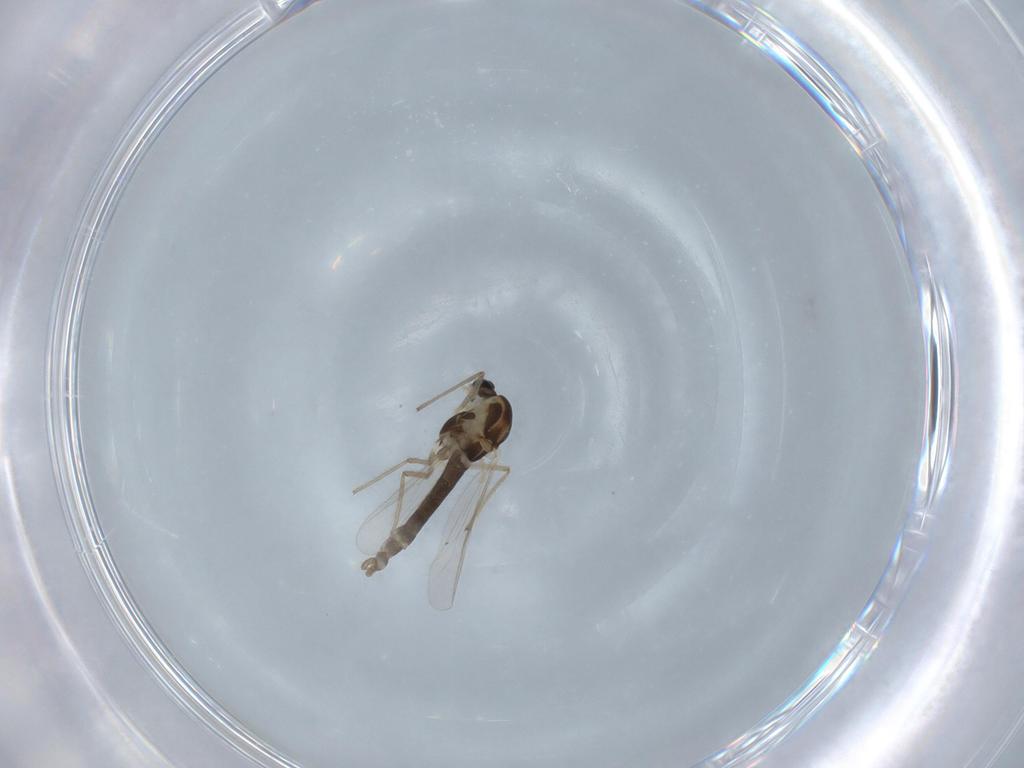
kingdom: Animalia
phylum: Arthropoda
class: Insecta
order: Diptera
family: Chironomidae
